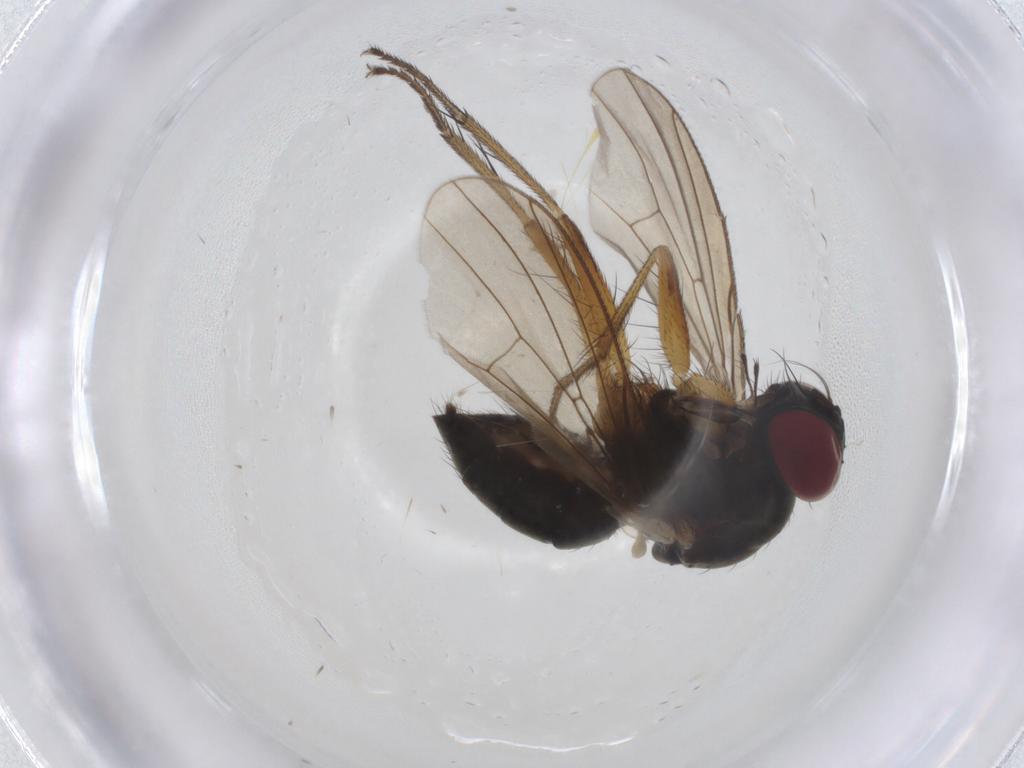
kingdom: Animalia
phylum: Arthropoda
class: Insecta
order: Diptera
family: Muscidae
